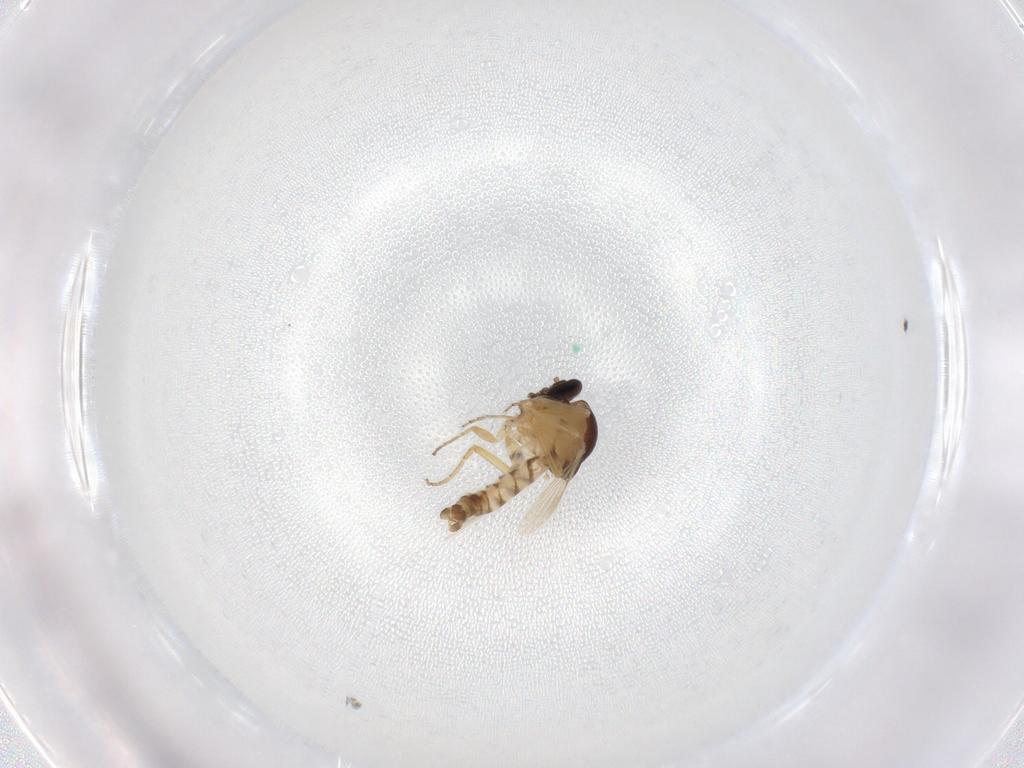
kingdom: Animalia
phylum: Arthropoda
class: Insecta
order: Diptera
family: Ceratopogonidae
